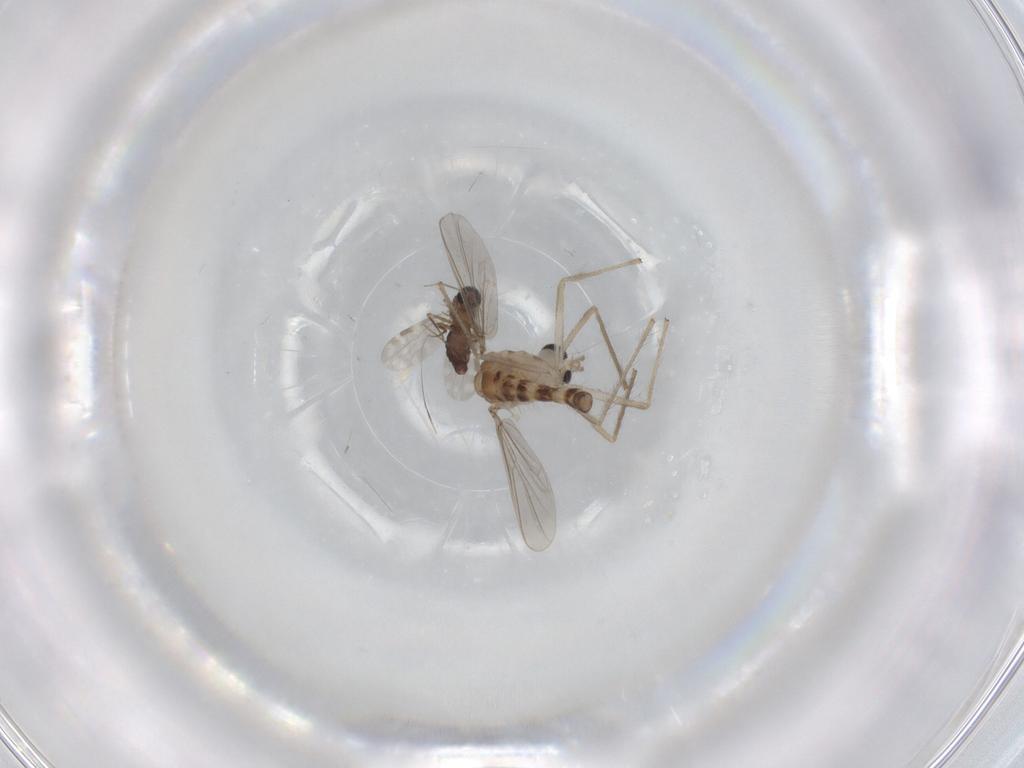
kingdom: Animalia
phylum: Arthropoda
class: Insecta
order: Diptera
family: Chironomidae
